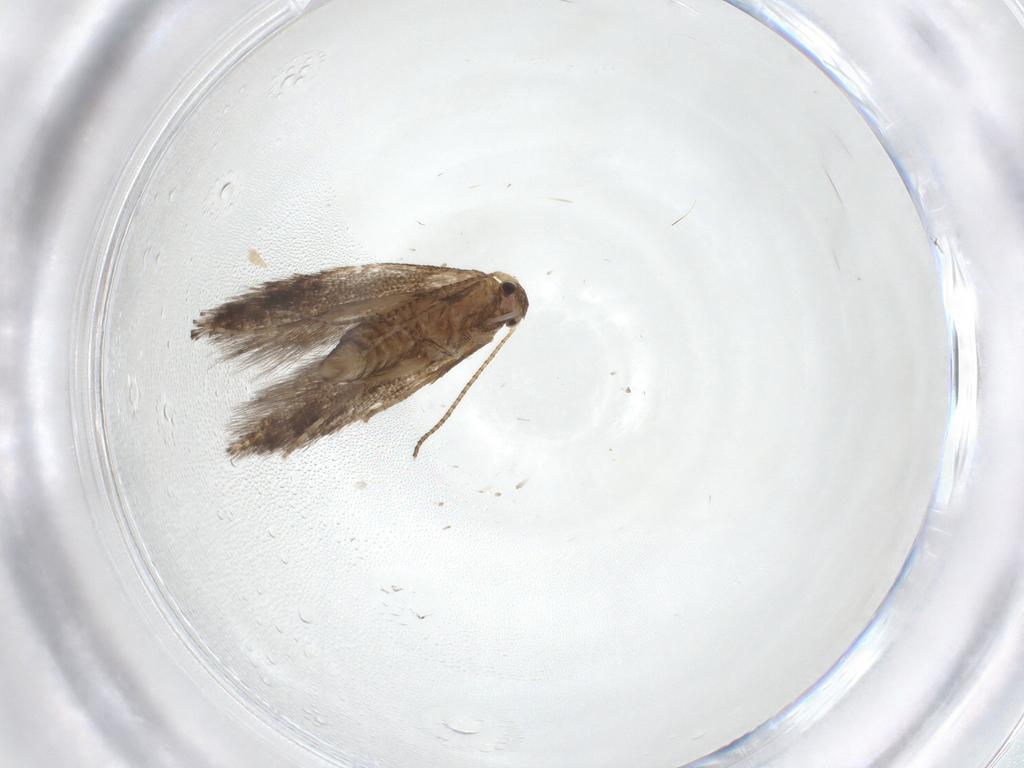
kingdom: Animalia
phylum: Arthropoda
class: Insecta
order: Lepidoptera
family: Bucculatricidae
